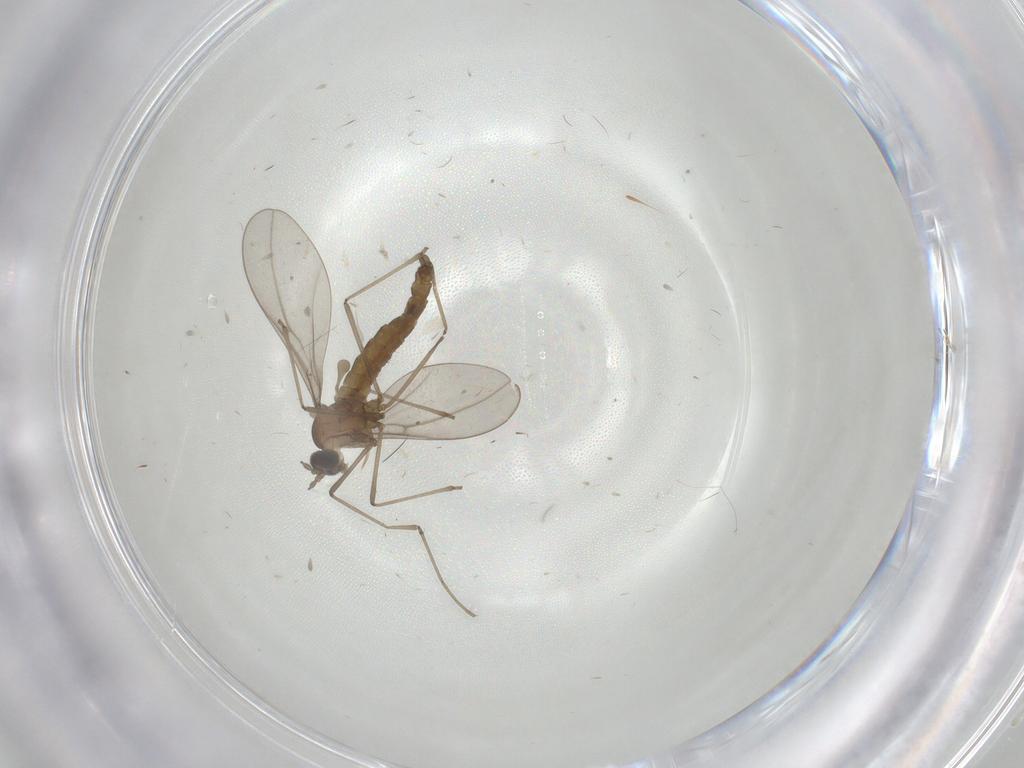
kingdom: Animalia
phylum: Arthropoda
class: Insecta
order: Diptera
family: Cecidomyiidae
